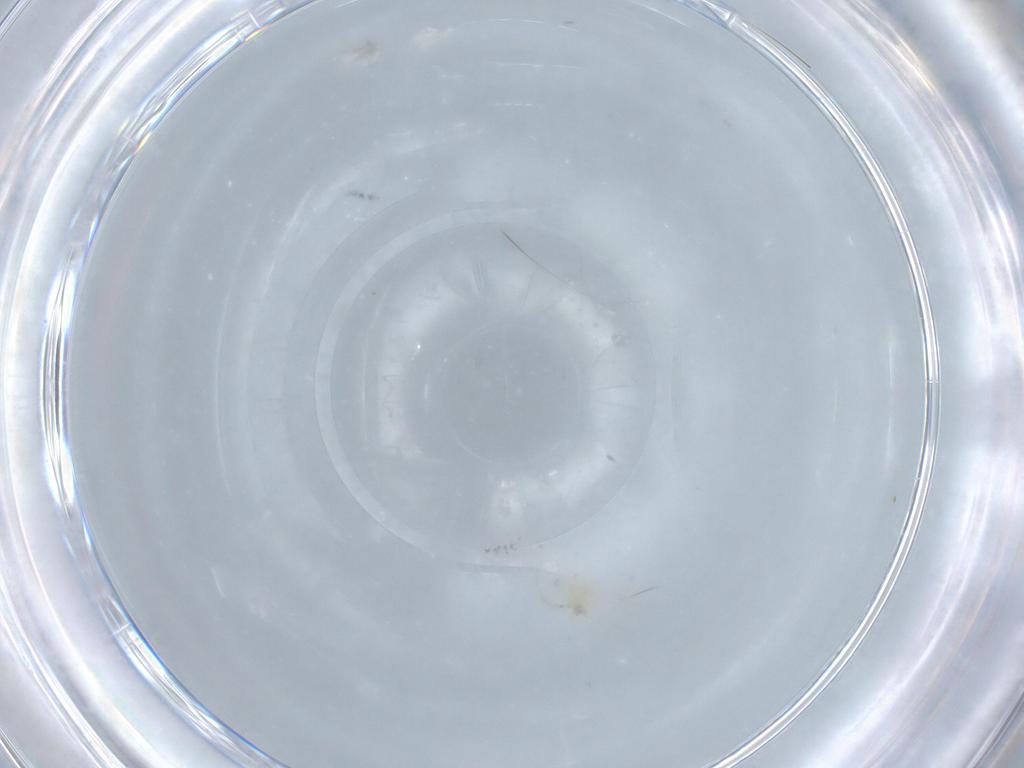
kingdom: Animalia
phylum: Arthropoda
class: Arachnida
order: Trombidiformes
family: Erythraeidae
